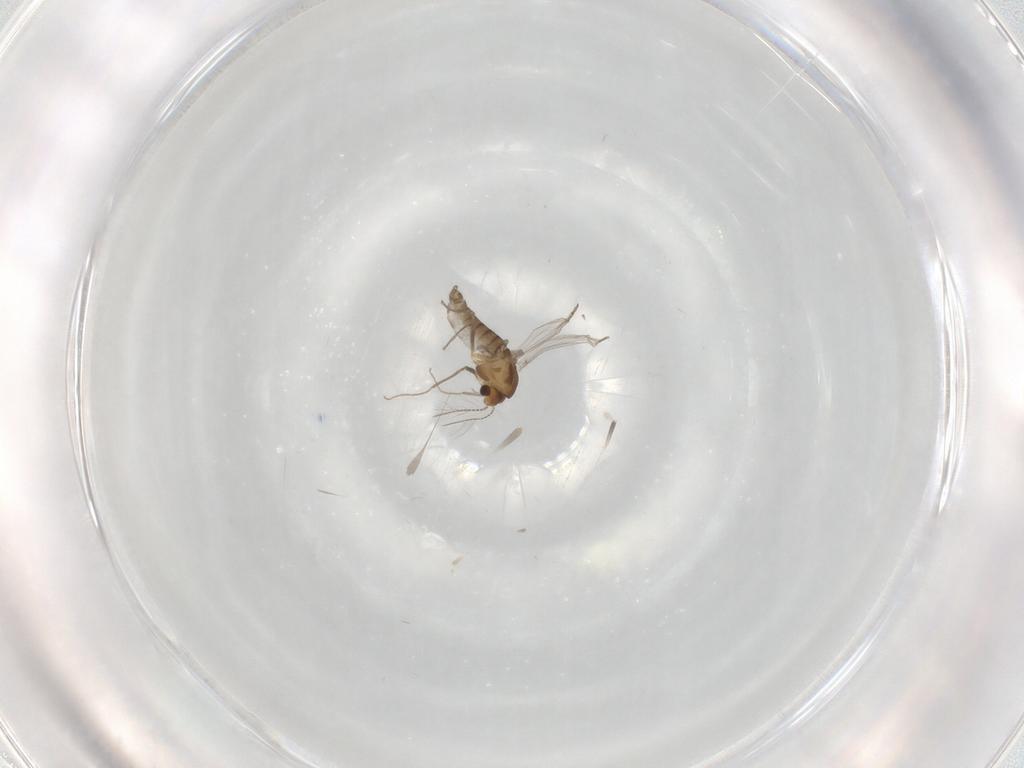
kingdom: Animalia
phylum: Arthropoda
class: Insecta
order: Diptera
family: Chironomidae
